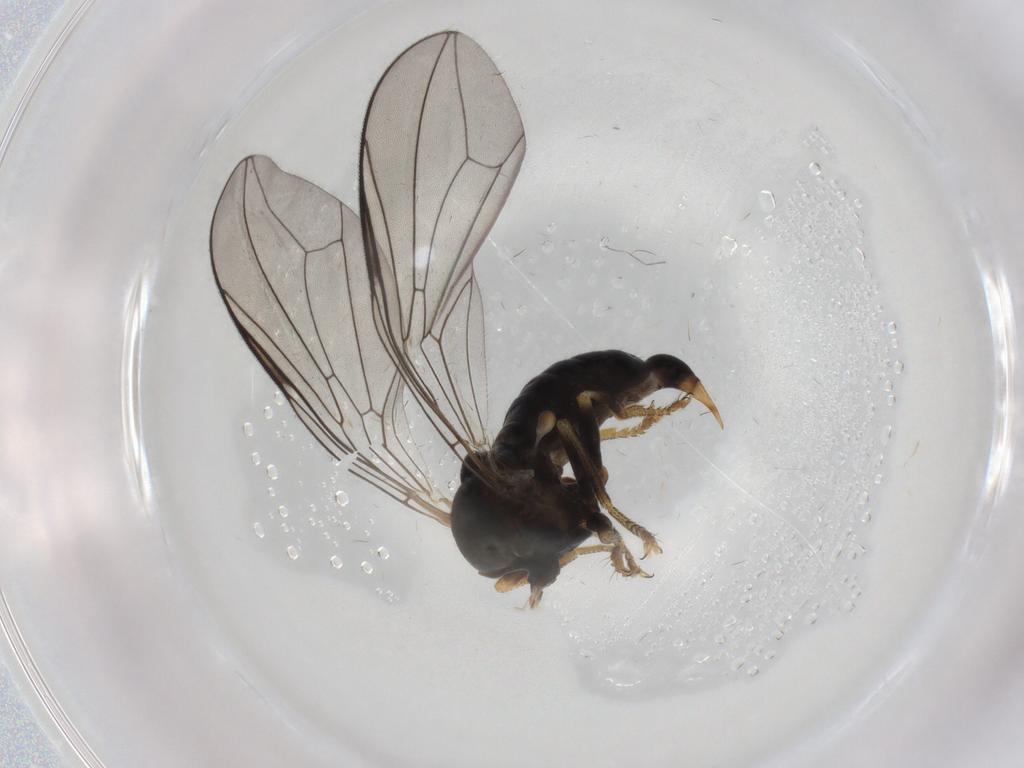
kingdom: Animalia
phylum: Arthropoda
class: Insecta
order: Diptera
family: Pipunculidae
